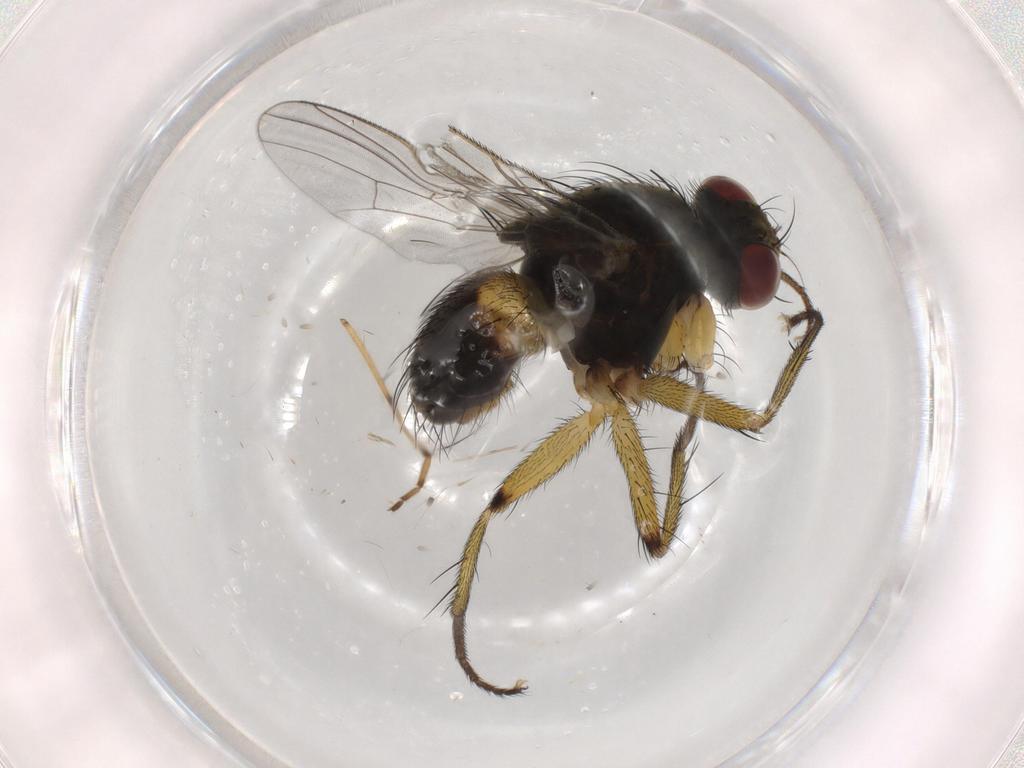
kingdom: Animalia
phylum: Arthropoda
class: Insecta
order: Diptera
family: Muscidae
